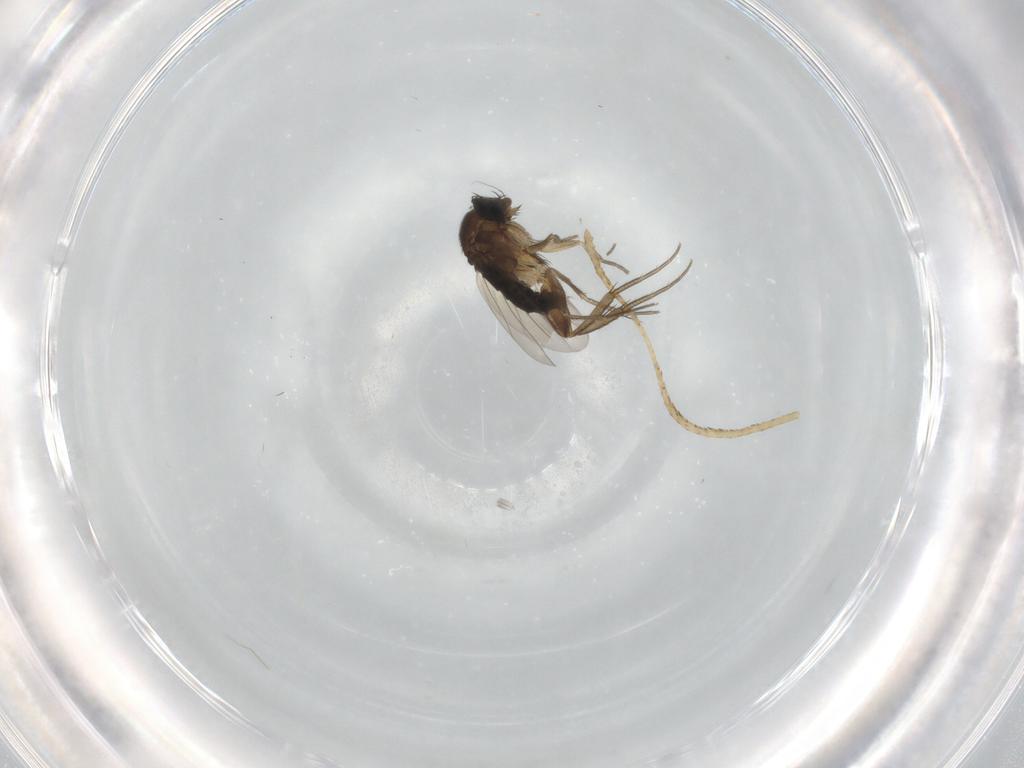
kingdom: Animalia
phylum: Arthropoda
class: Insecta
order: Diptera
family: Phoridae
